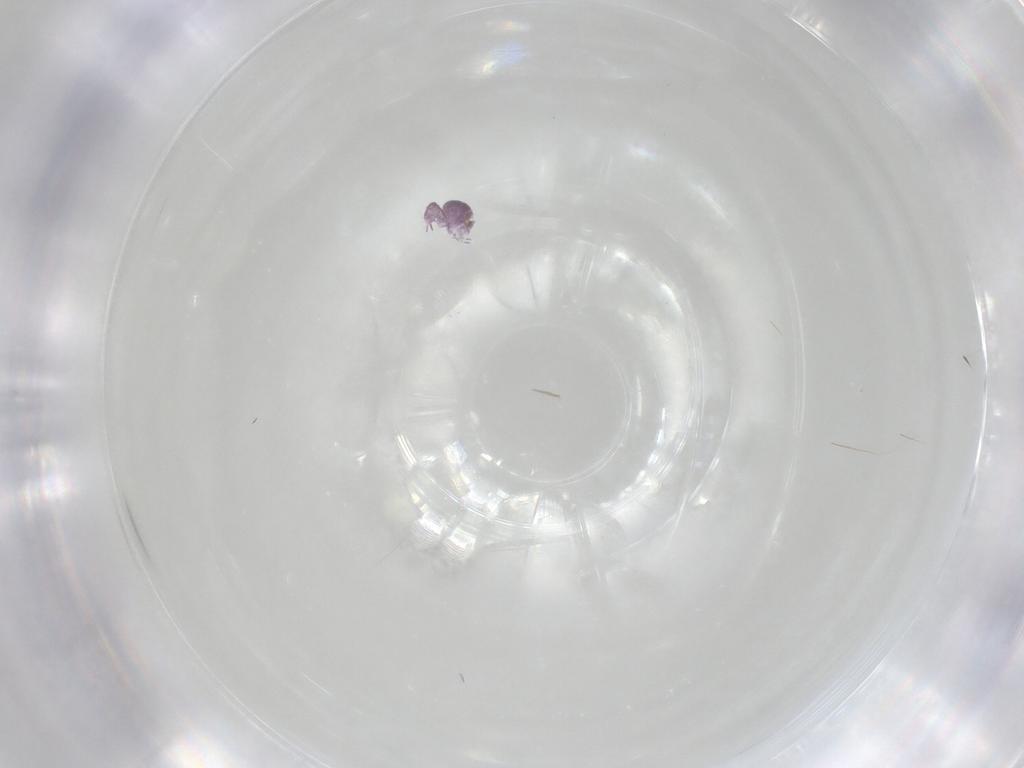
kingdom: Animalia
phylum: Arthropoda
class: Collembola
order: Symphypleona
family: Sminthurididae
